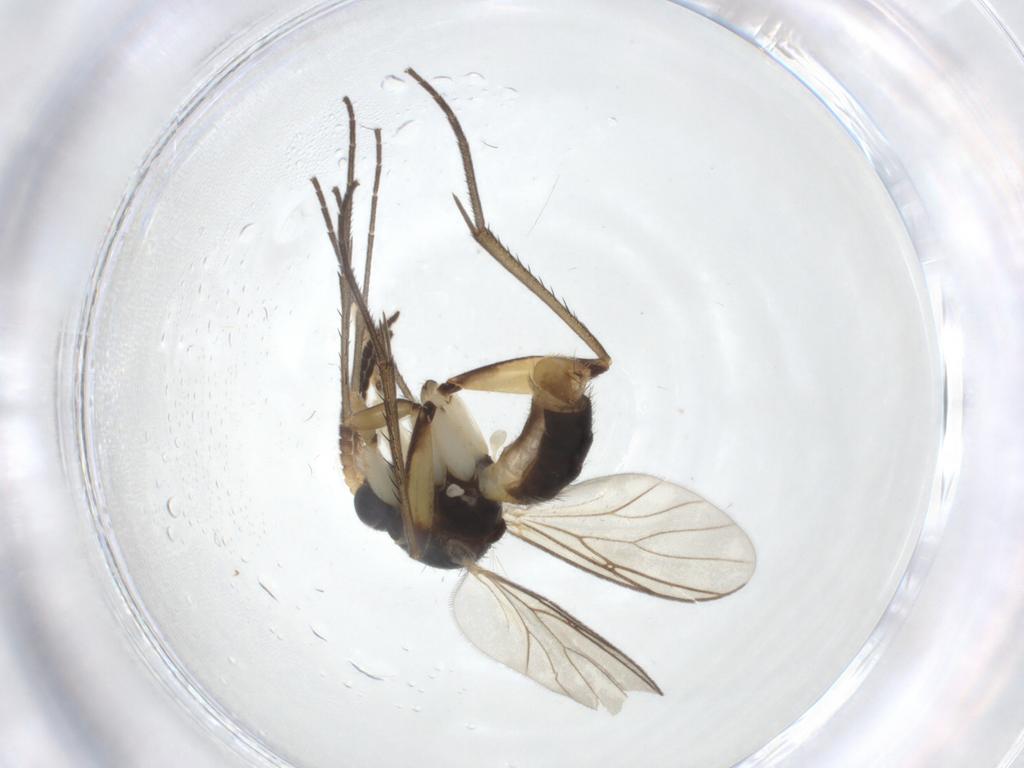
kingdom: Animalia
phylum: Arthropoda
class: Insecta
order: Diptera
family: Mycetophilidae
